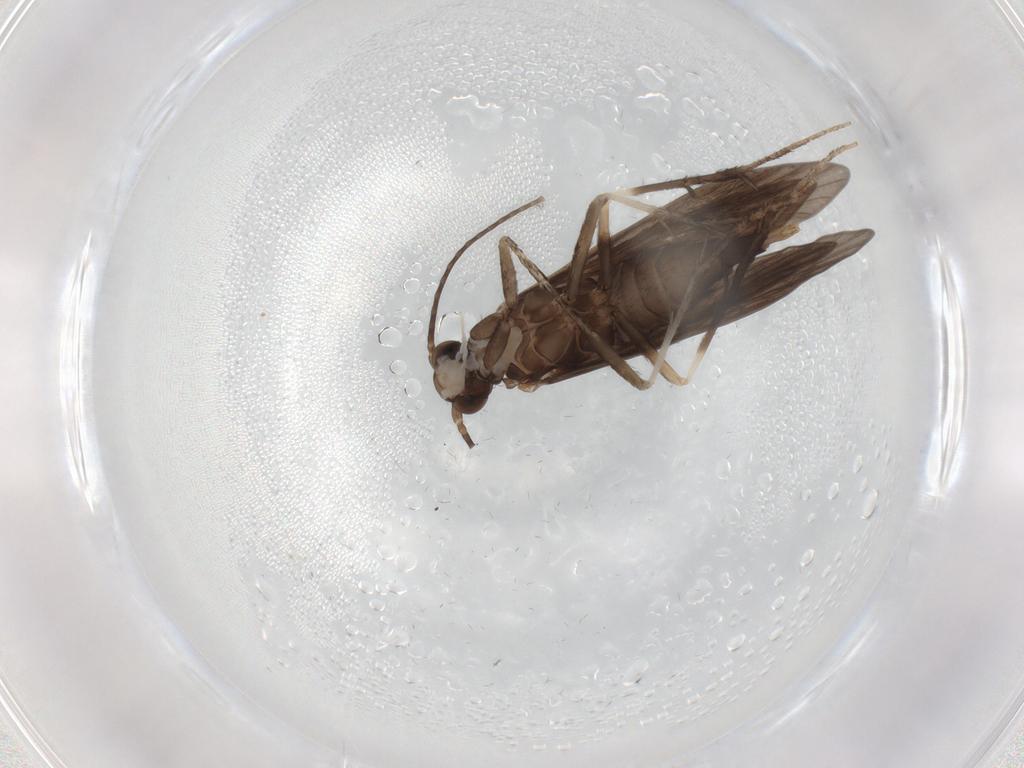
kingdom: Animalia
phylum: Arthropoda
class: Insecta
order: Trichoptera
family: Xiphocentronidae
